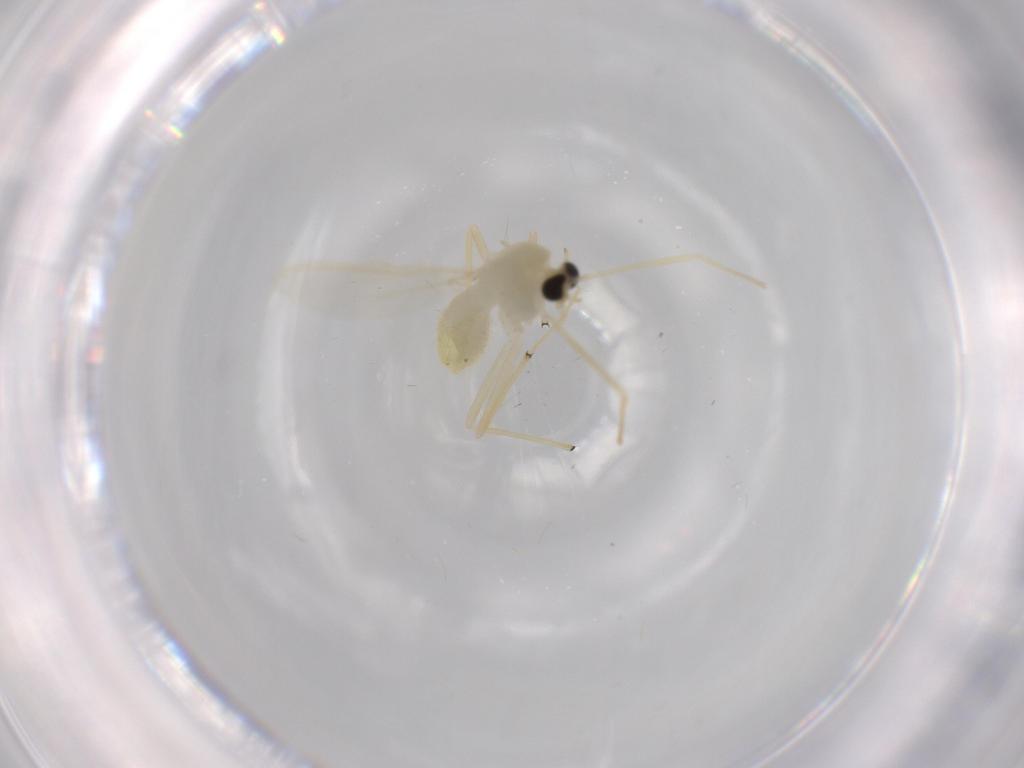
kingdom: Animalia
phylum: Arthropoda
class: Insecta
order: Diptera
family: Chironomidae
